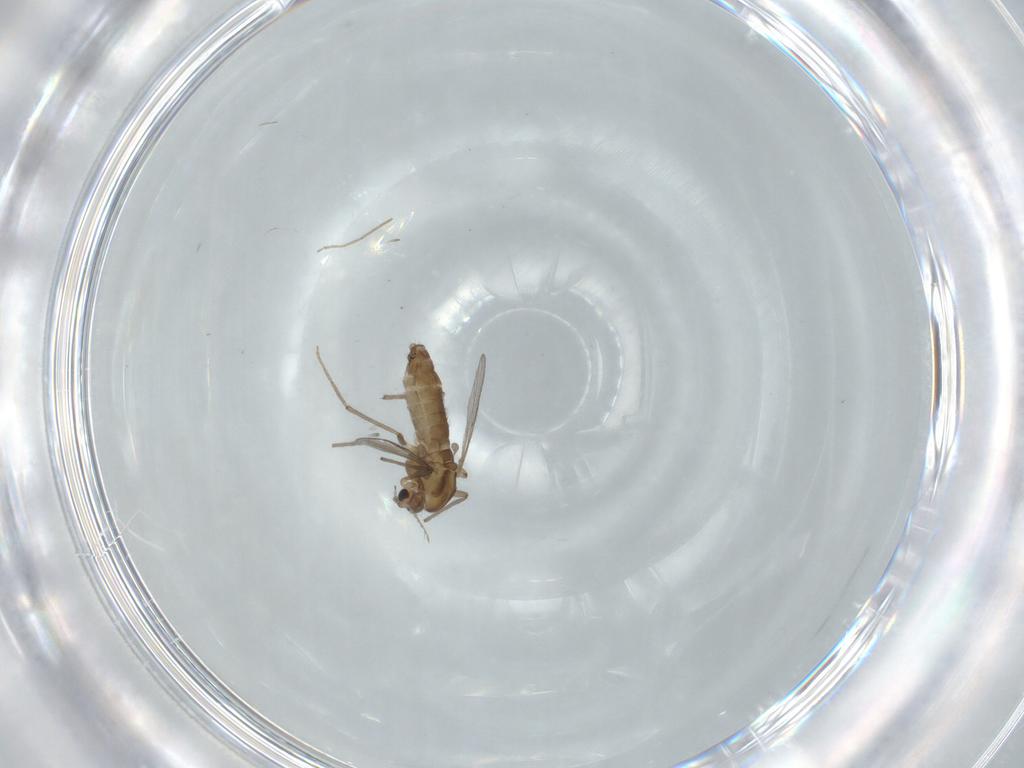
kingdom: Animalia
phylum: Arthropoda
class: Insecta
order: Diptera
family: Chironomidae
